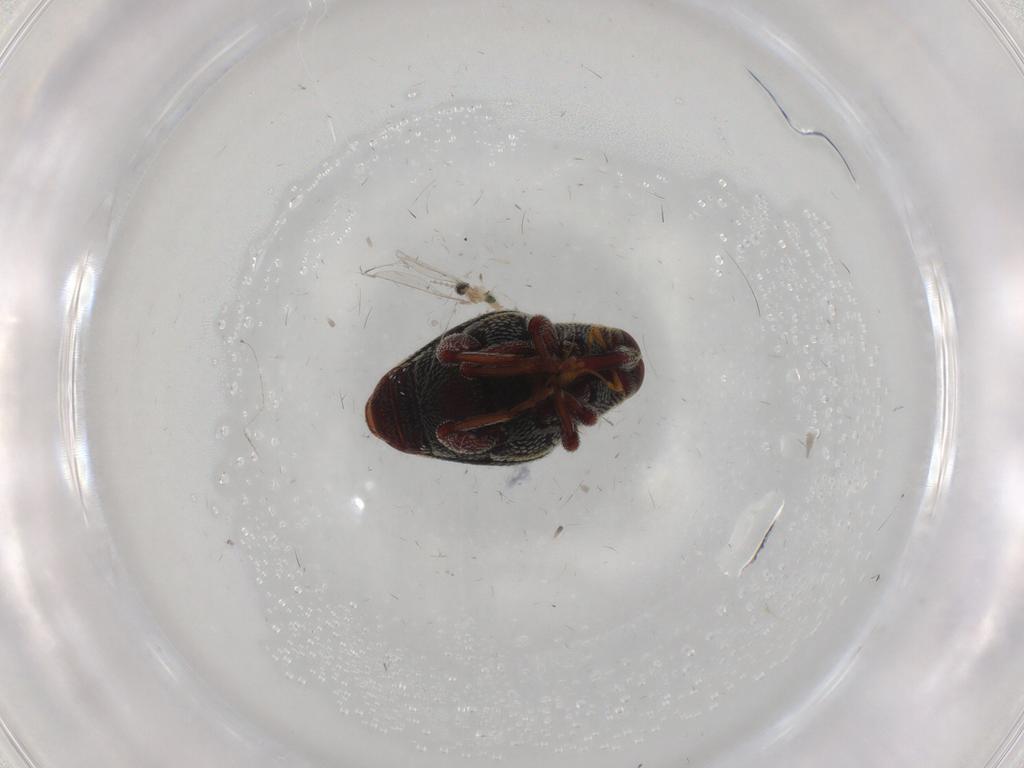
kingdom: Animalia
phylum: Arthropoda
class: Insecta
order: Diptera
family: Cecidomyiidae
